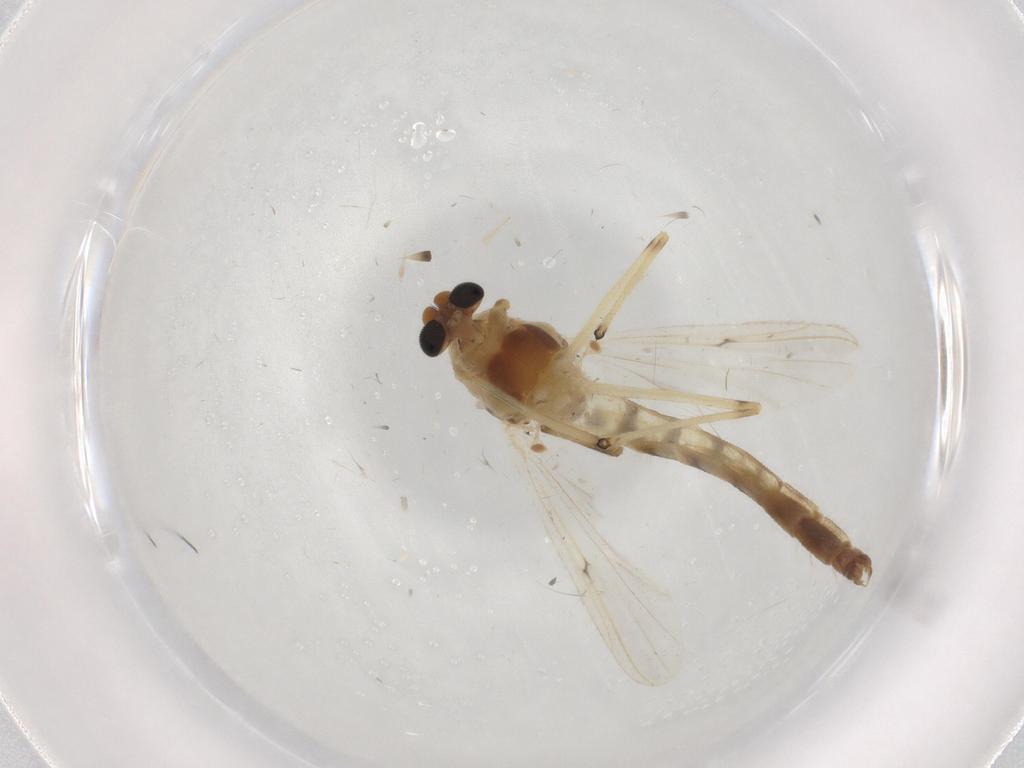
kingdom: Animalia
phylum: Arthropoda
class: Insecta
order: Diptera
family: Chironomidae
